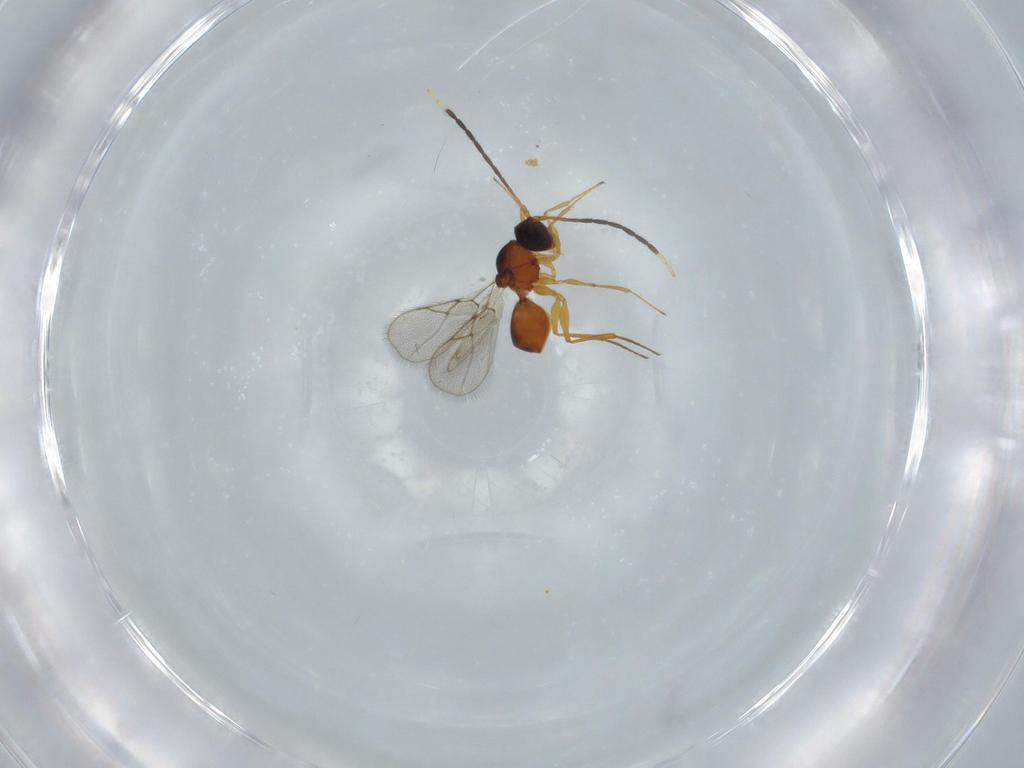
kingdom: Animalia
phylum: Arthropoda
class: Insecta
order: Hymenoptera
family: Figitidae
